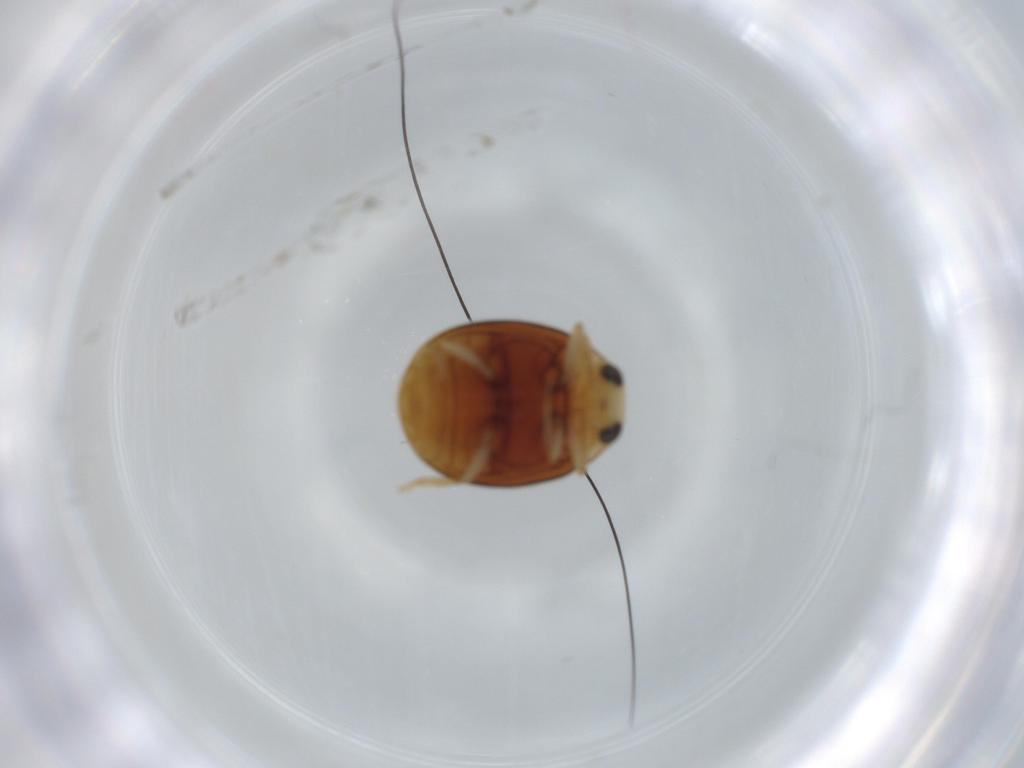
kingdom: Animalia
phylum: Arthropoda
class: Insecta
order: Coleoptera
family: Coccinellidae
